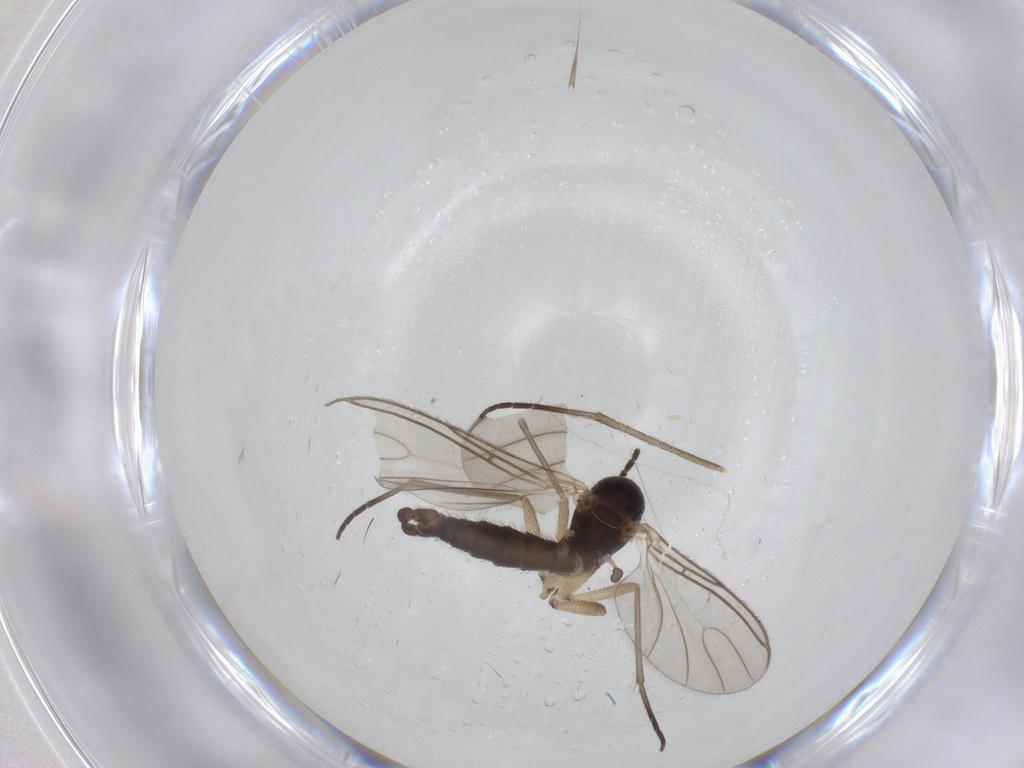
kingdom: Animalia
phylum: Arthropoda
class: Insecta
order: Diptera
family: Sciaridae
